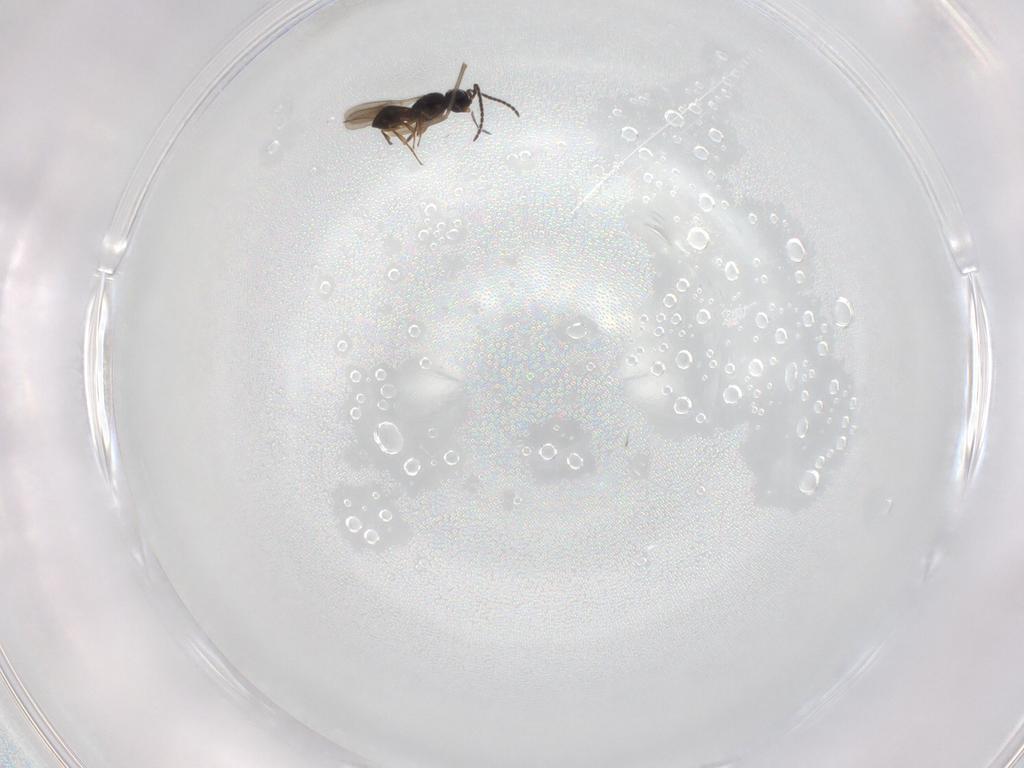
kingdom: Animalia
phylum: Arthropoda
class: Insecta
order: Hymenoptera
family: Scelionidae
